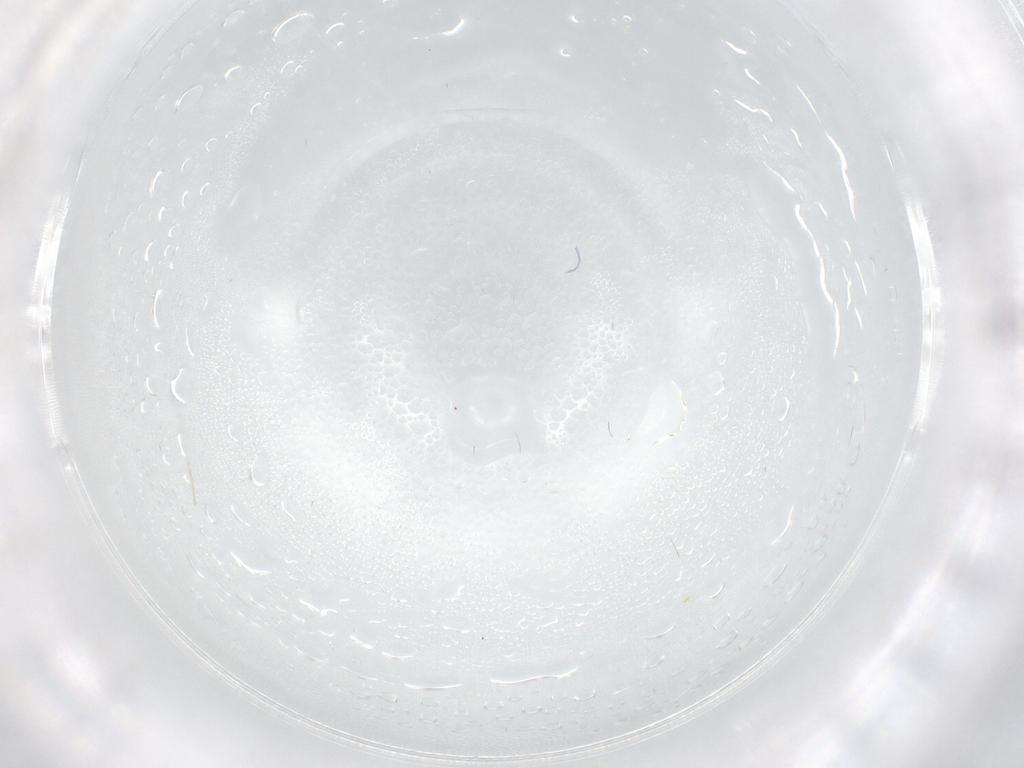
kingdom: Animalia
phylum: Arthropoda
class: Insecta
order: Diptera
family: Cecidomyiidae
